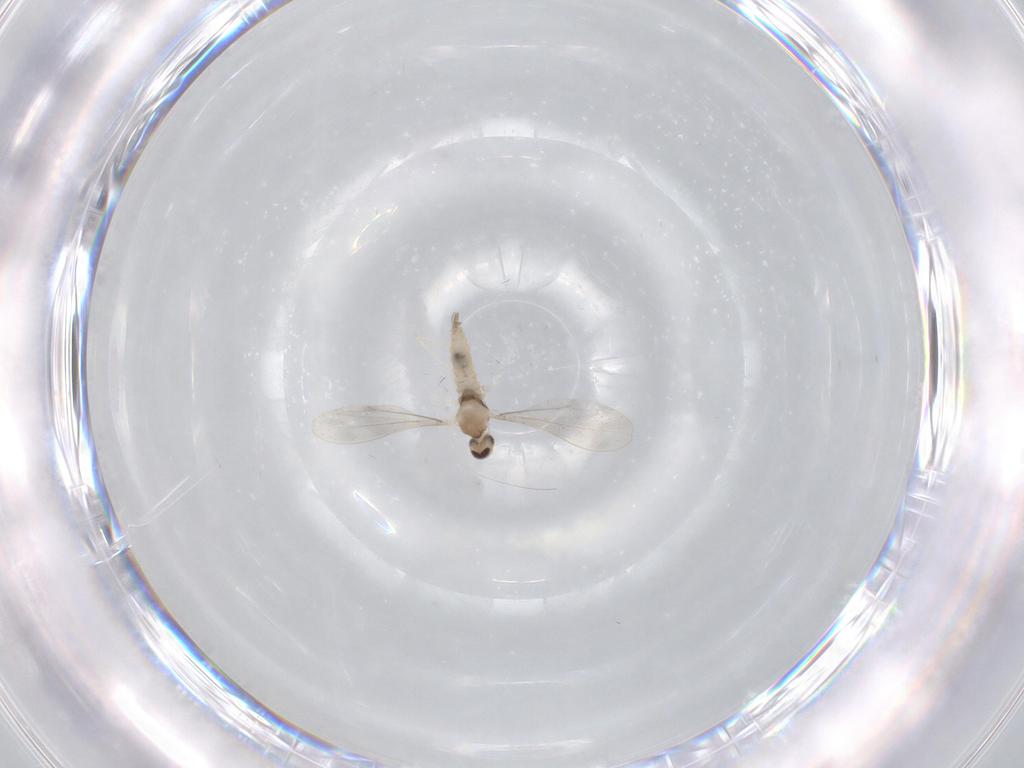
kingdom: Animalia
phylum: Arthropoda
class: Insecta
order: Diptera
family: Cecidomyiidae
